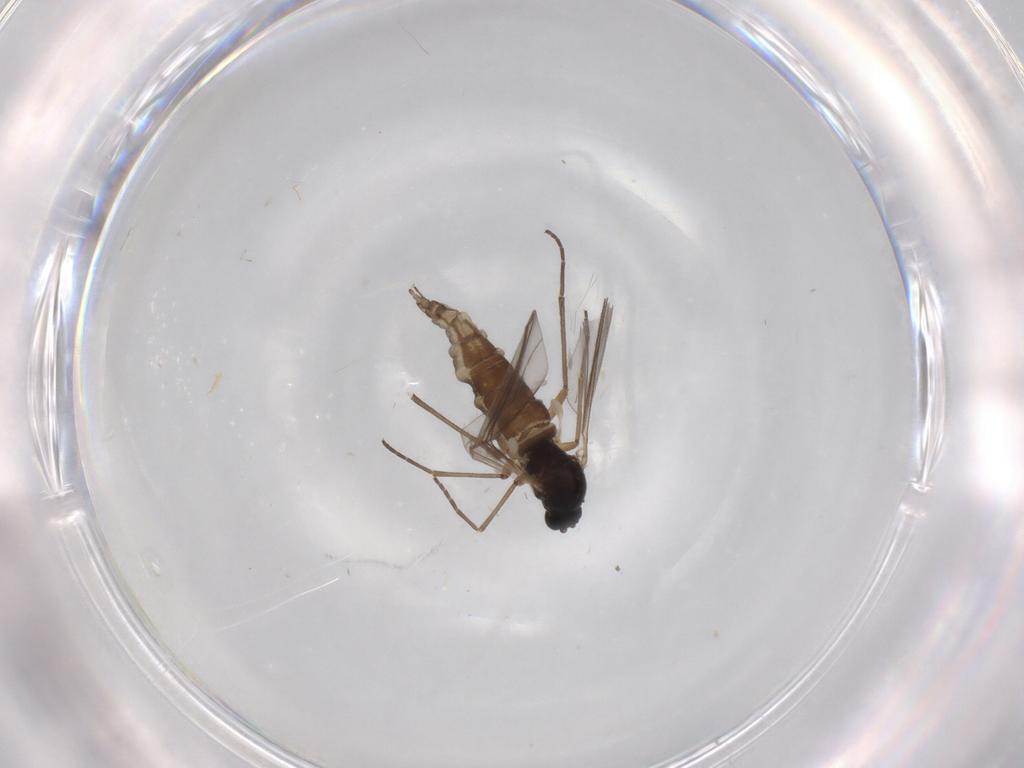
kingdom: Animalia
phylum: Arthropoda
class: Insecta
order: Diptera
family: Sciaridae
